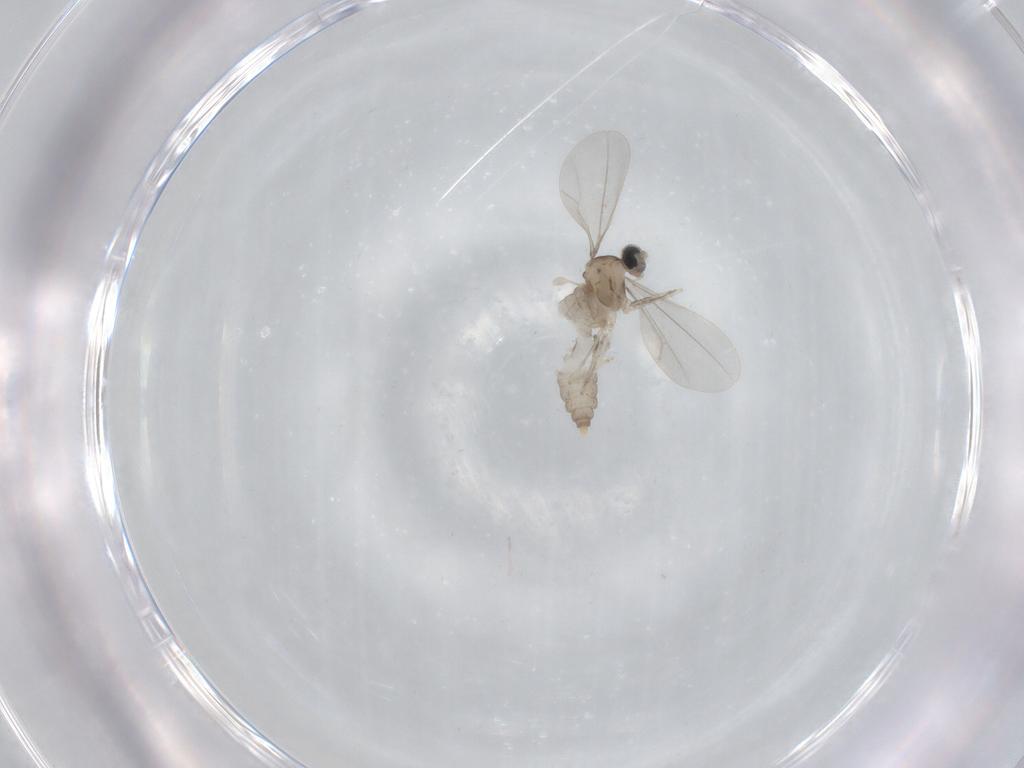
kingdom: Animalia
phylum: Arthropoda
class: Insecta
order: Diptera
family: Cecidomyiidae
